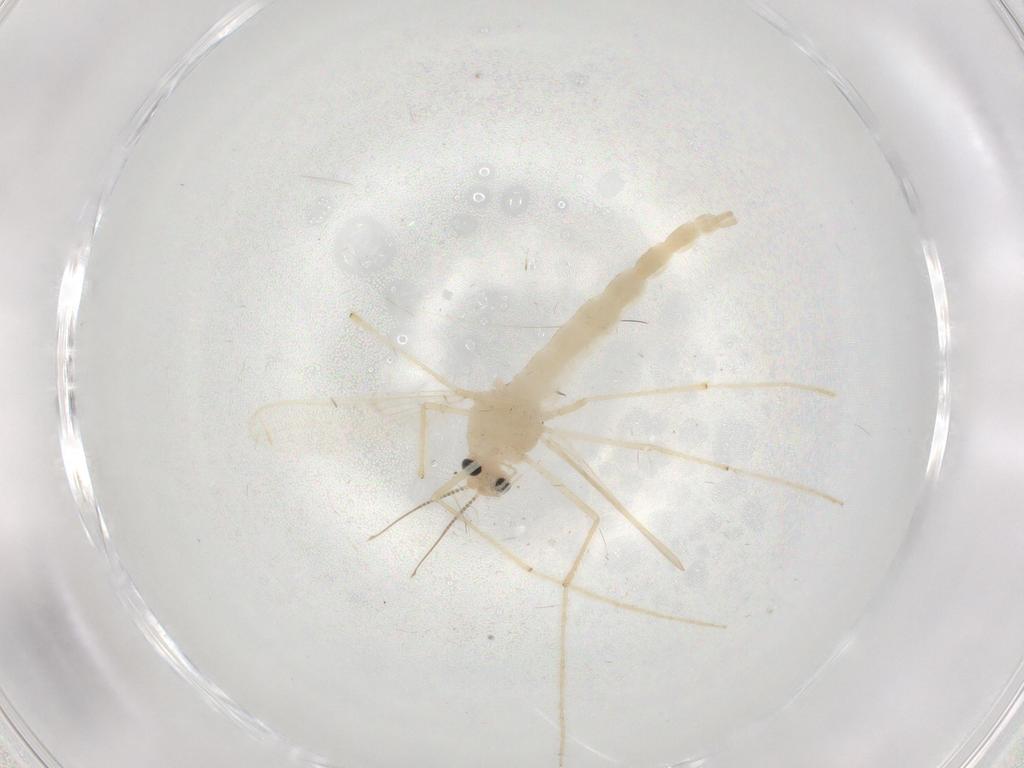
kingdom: Animalia
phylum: Arthropoda
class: Insecta
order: Diptera
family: Chironomidae
